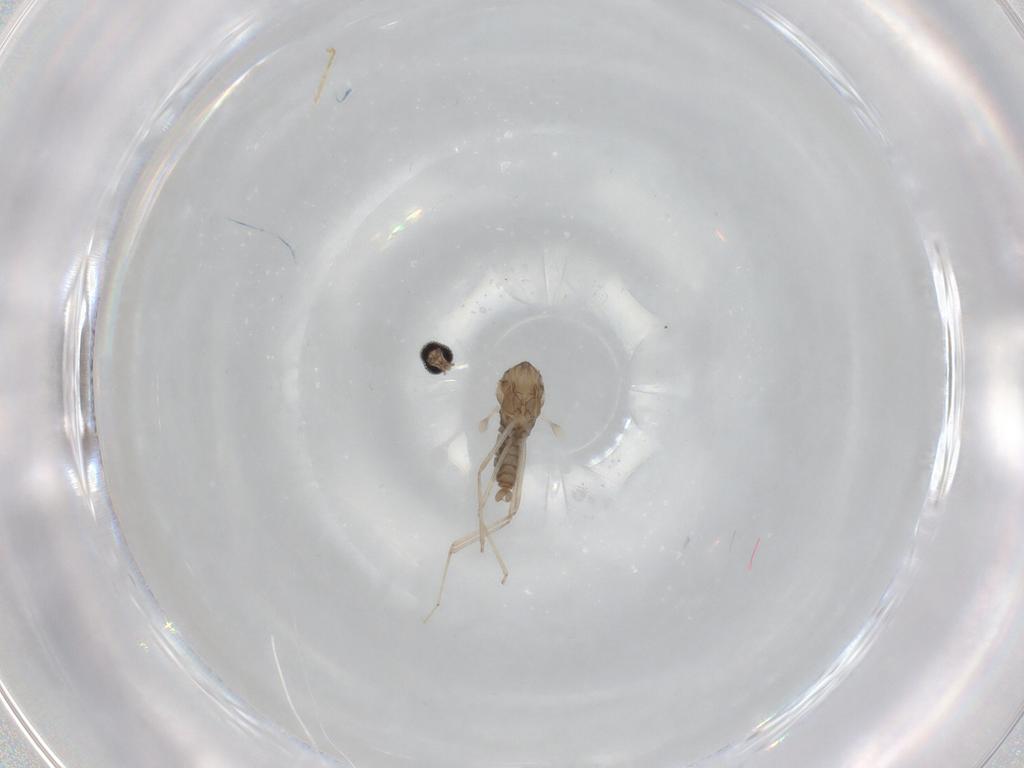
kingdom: Animalia
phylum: Arthropoda
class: Insecta
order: Diptera
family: Cecidomyiidae
